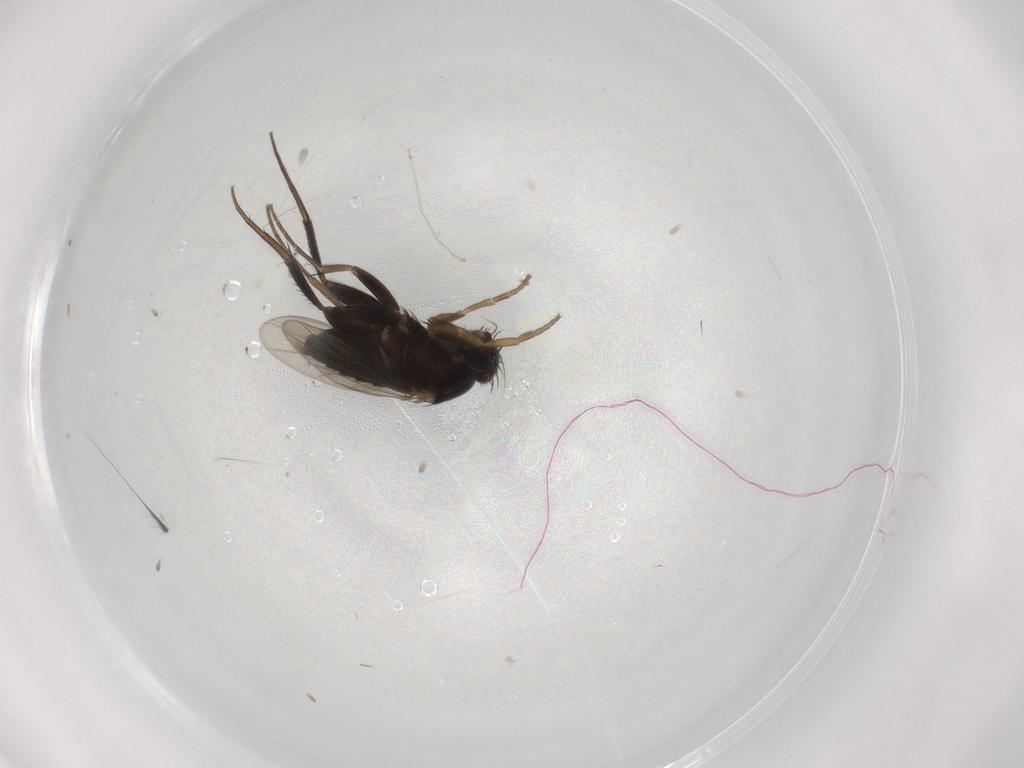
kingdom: Animalia
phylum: Arthropoda
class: Insecta
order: Diptera
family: Phoridae
